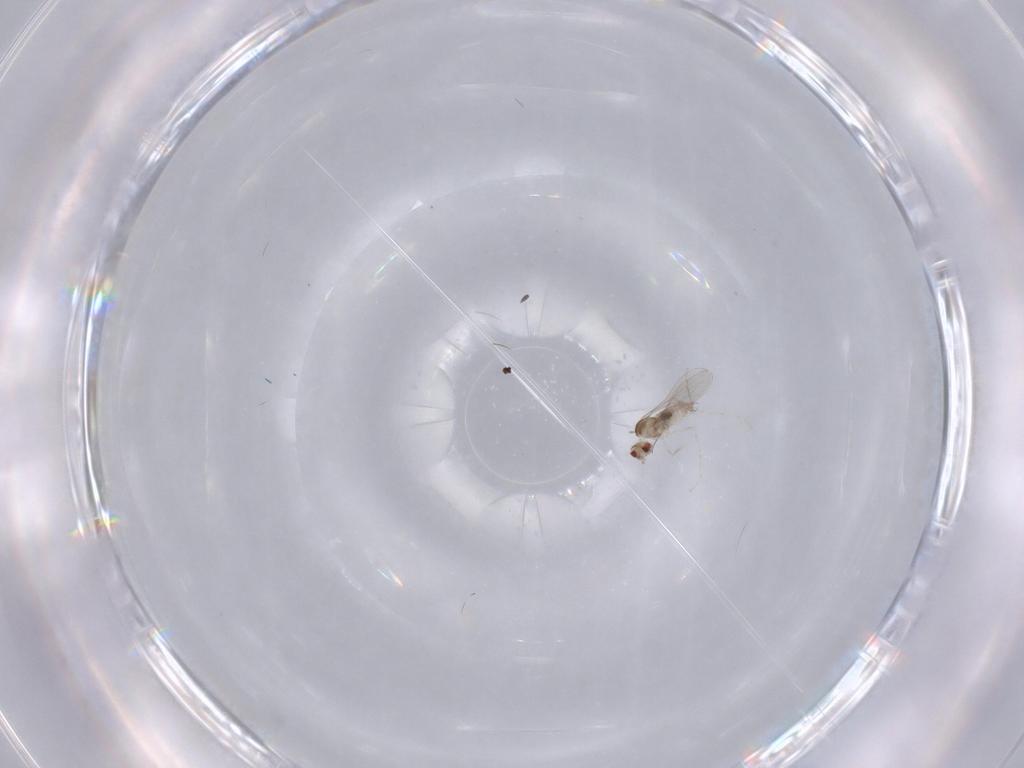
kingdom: Animalia
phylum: Arthropoda
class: Insecta
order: Diptera
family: Cecidomyiidae
